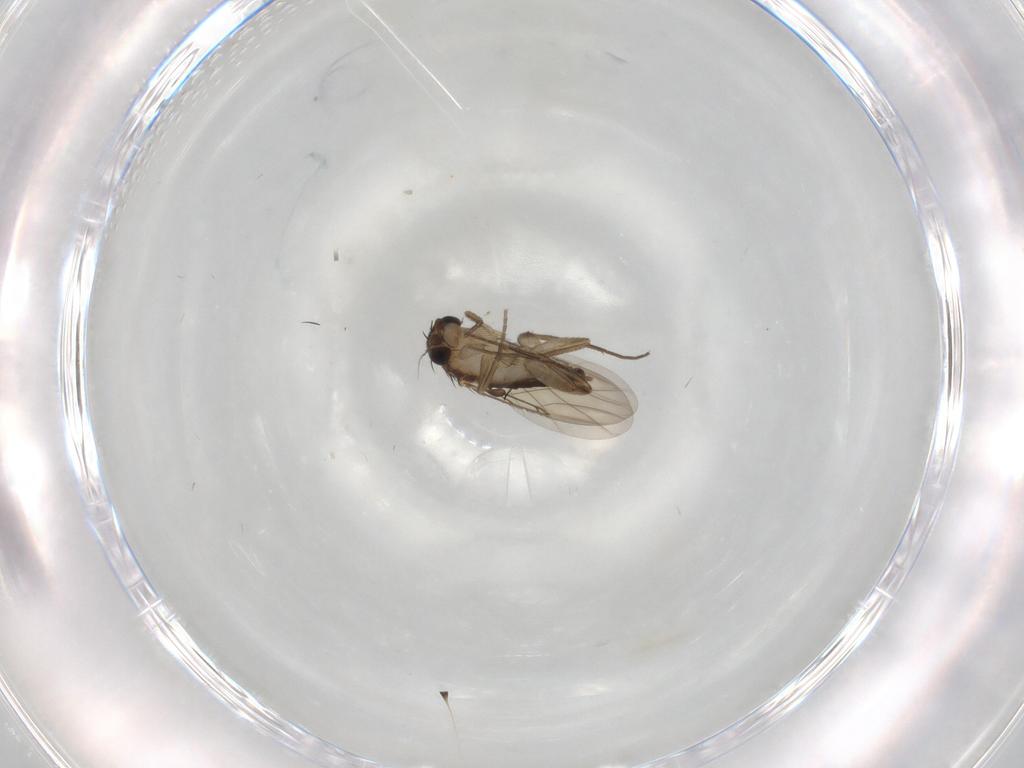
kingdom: Animalia
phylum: Arthropoda
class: Insecta
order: Diptera
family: Phoridae
